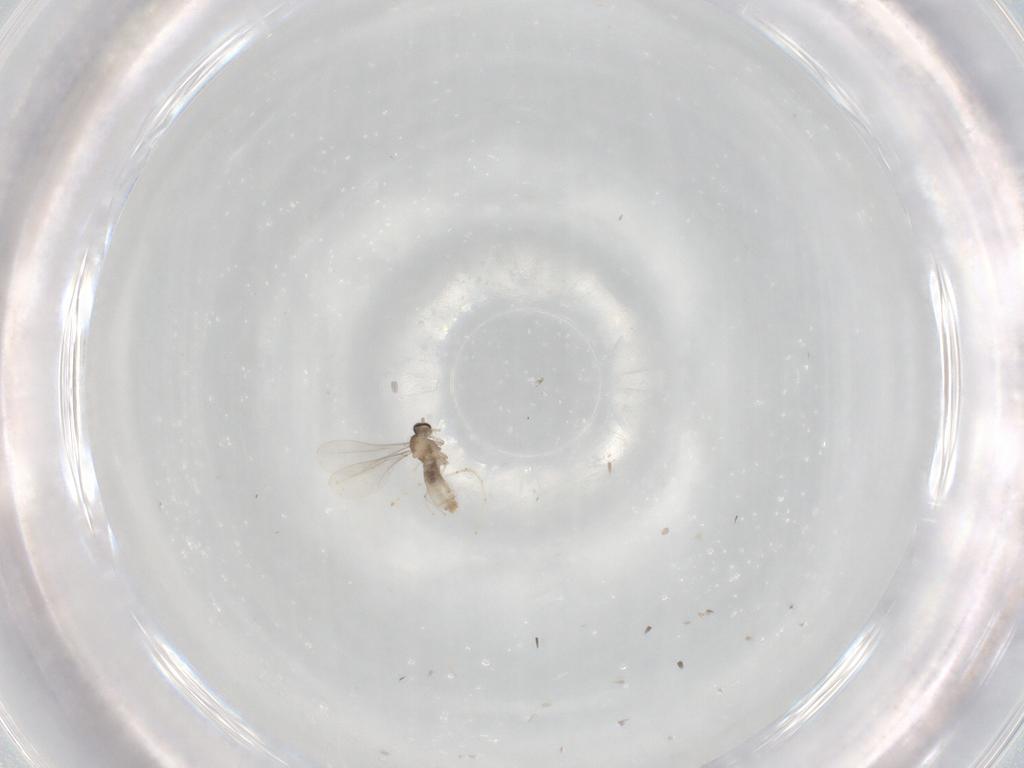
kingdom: Animalia
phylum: Arthropoda
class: Insecta
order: Diptera
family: Cecidomyiidae
